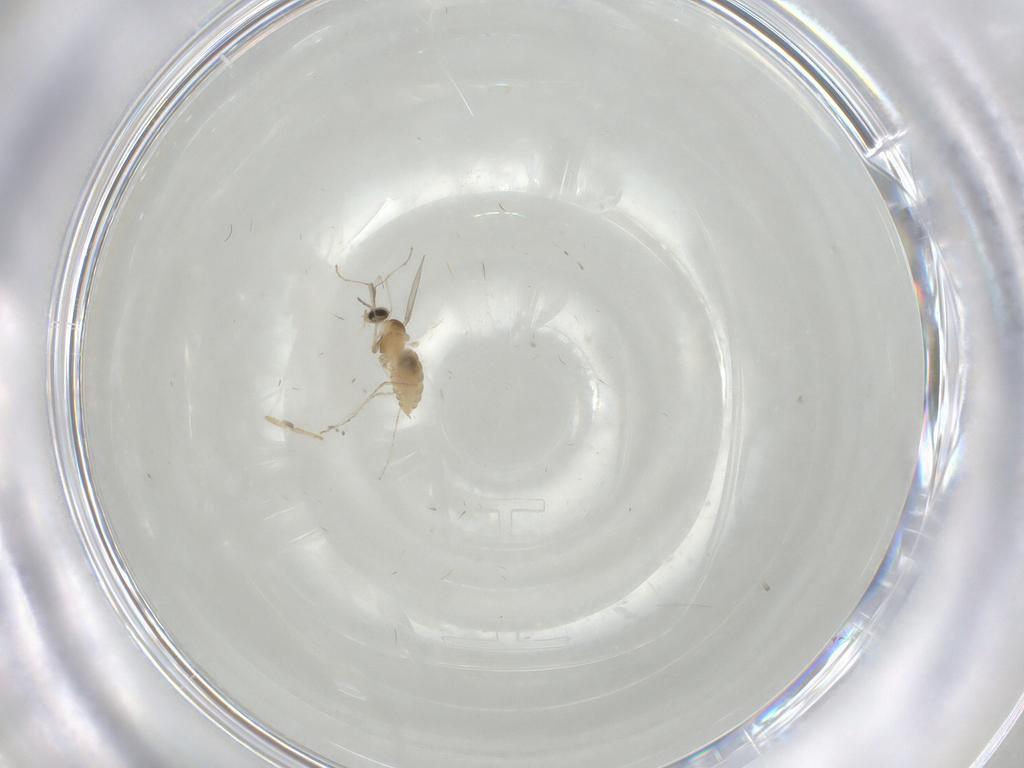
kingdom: Animalia
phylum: Arthropoda
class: Insecta
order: Diptera
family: Cecidomyiidae
